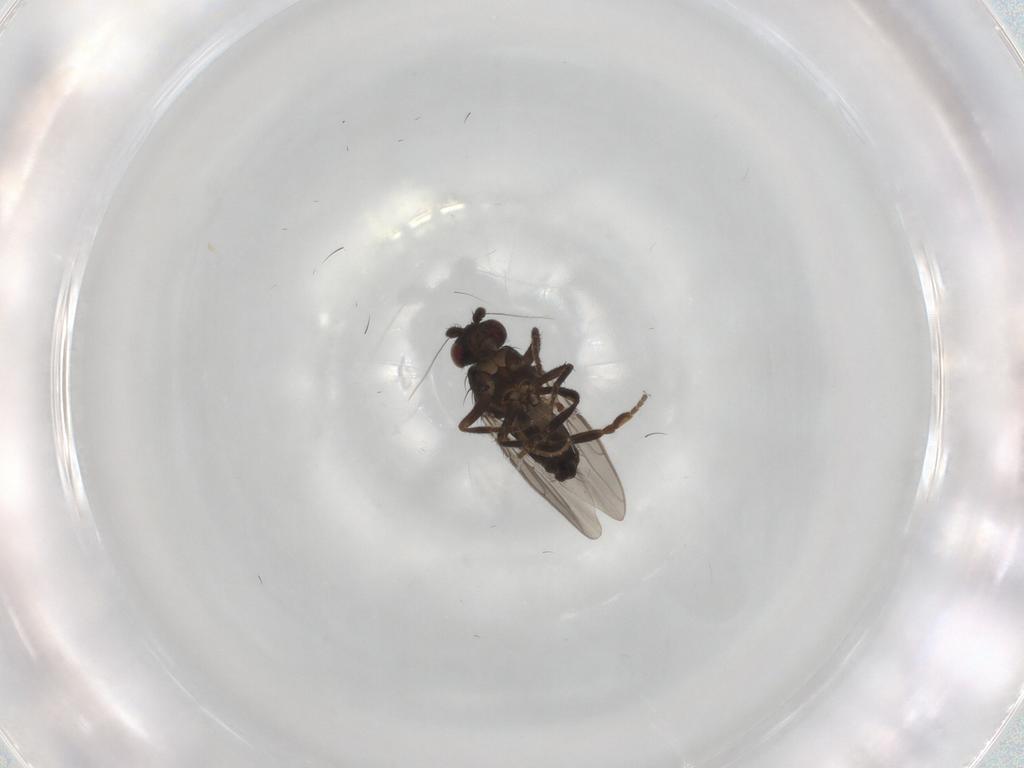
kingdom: Animalia
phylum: Arthropoda
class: Insecta
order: Diptera
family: Sphaeroceridae
